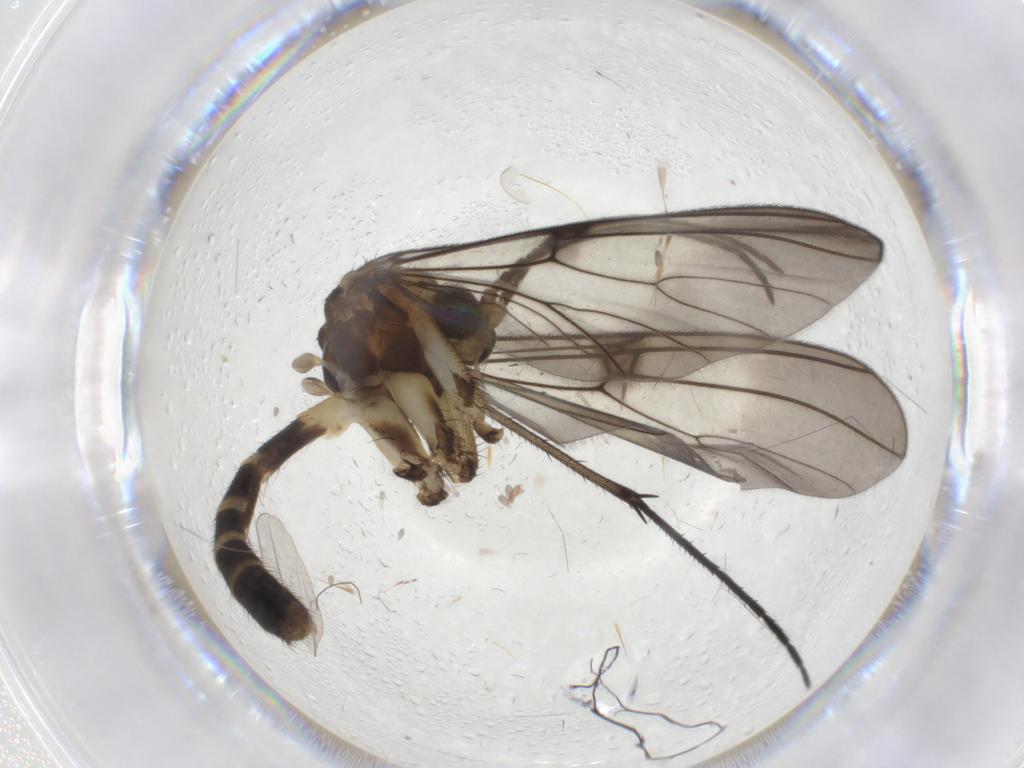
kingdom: Animalia
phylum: Arthropoda
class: Insecta
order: Diptera
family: Mycetophilidae
